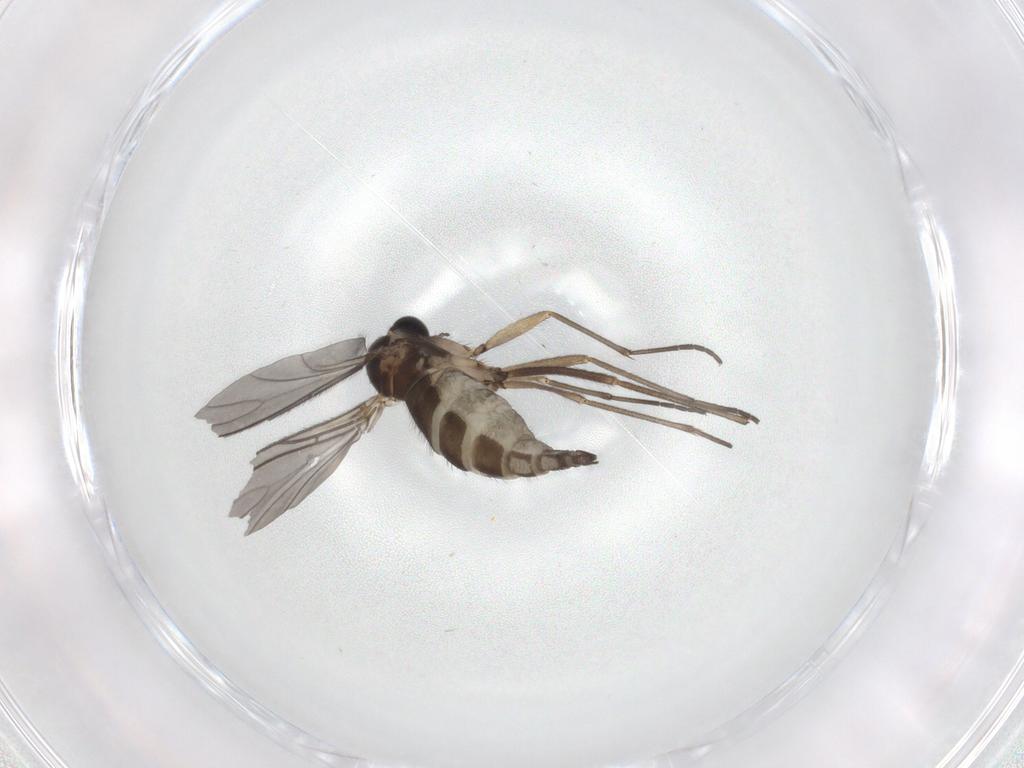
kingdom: Animalia
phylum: Arthropoda
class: Insecta
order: Diptera
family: Sciaridae
